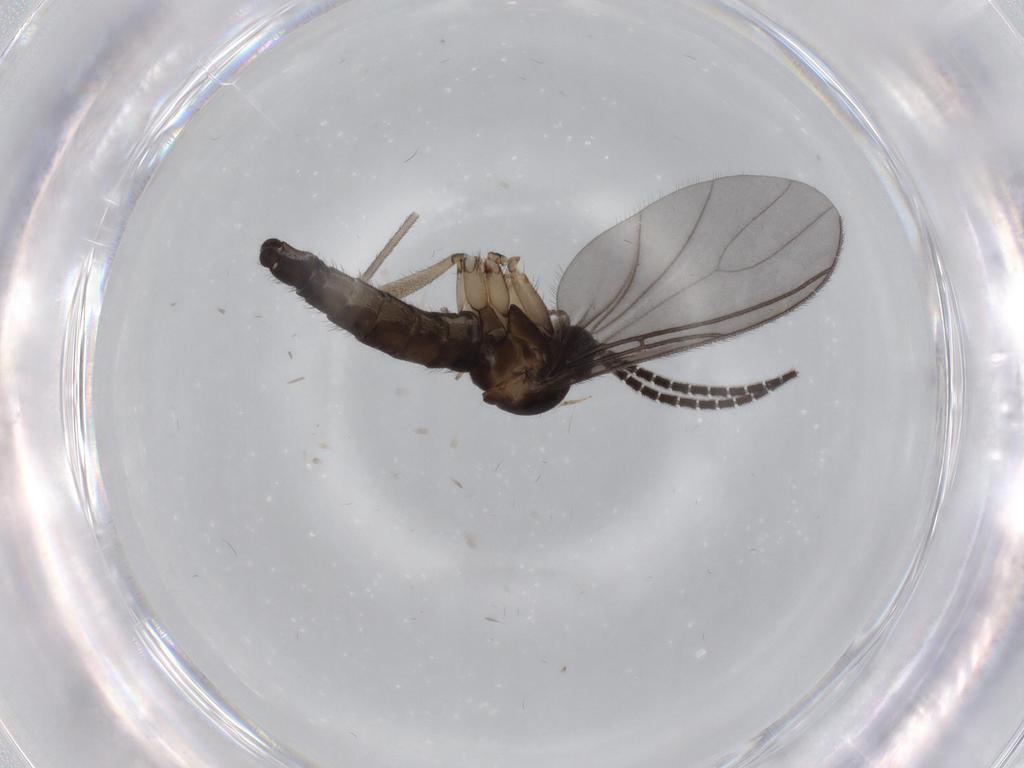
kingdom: Animalia
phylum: Arthropoda
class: Insecta
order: Diptera
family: Sciaridae
